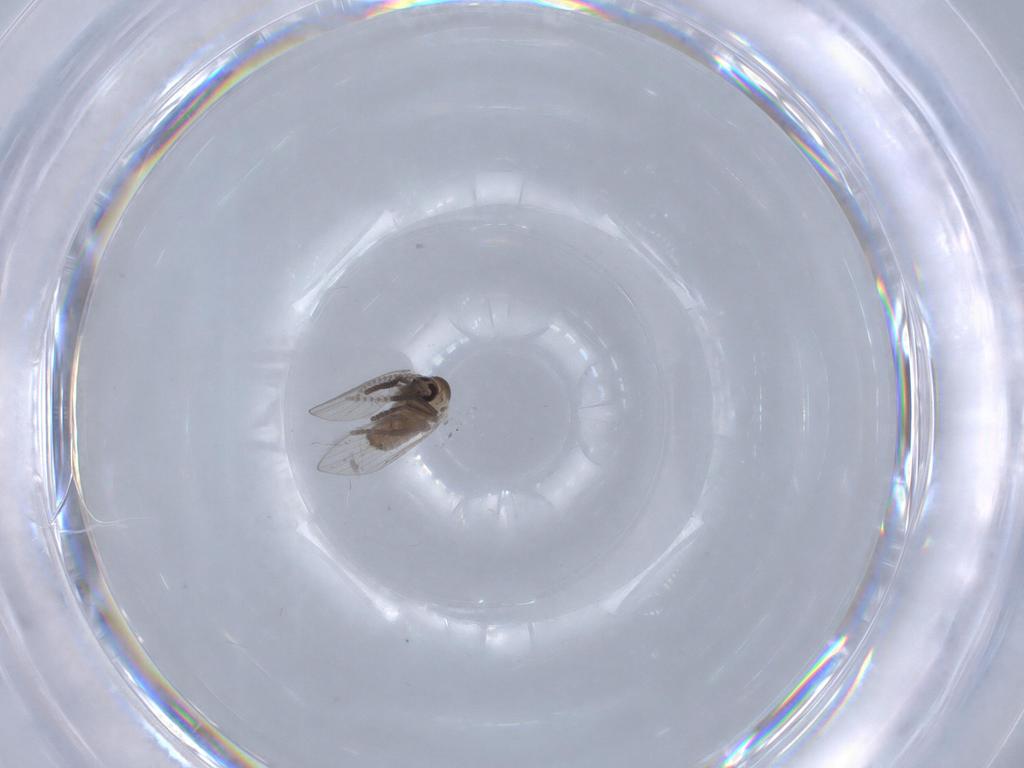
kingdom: Animalia
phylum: Arthropoda
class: Insecta
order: Diptera
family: Psychodidae
